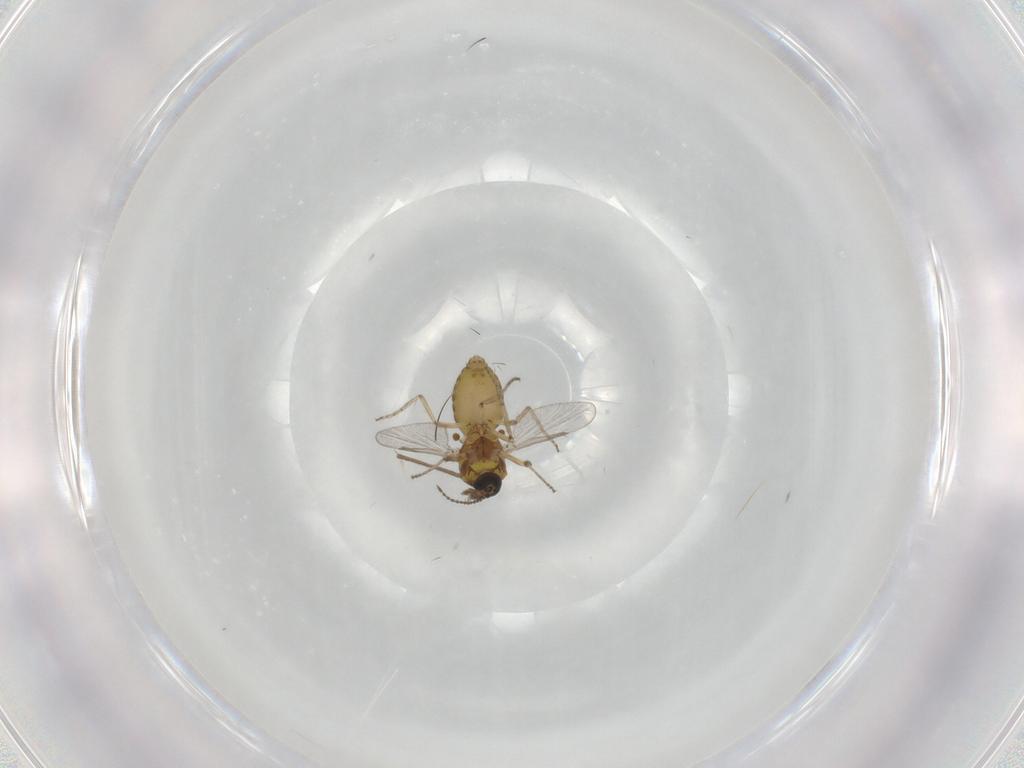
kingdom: Animalia
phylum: Arthropoda
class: Insecta
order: Diptera
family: Ceratopogonidae
